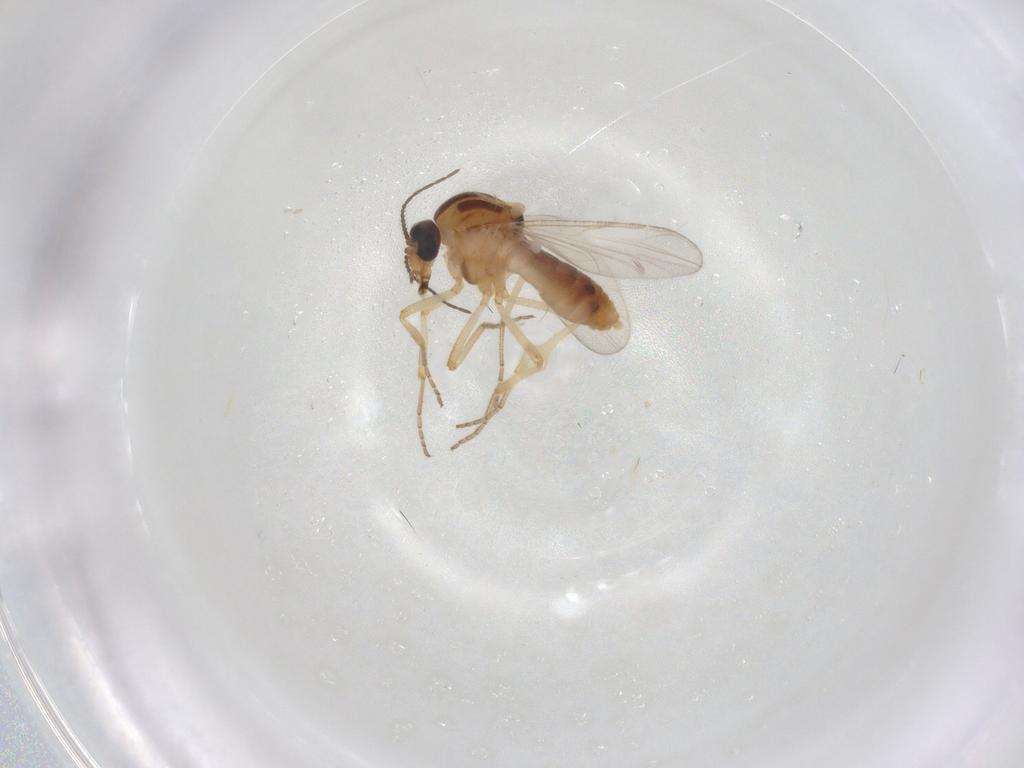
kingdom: Animalia
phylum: Arthropoda
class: Insecta
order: Diptera
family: Ceratopogonidae
